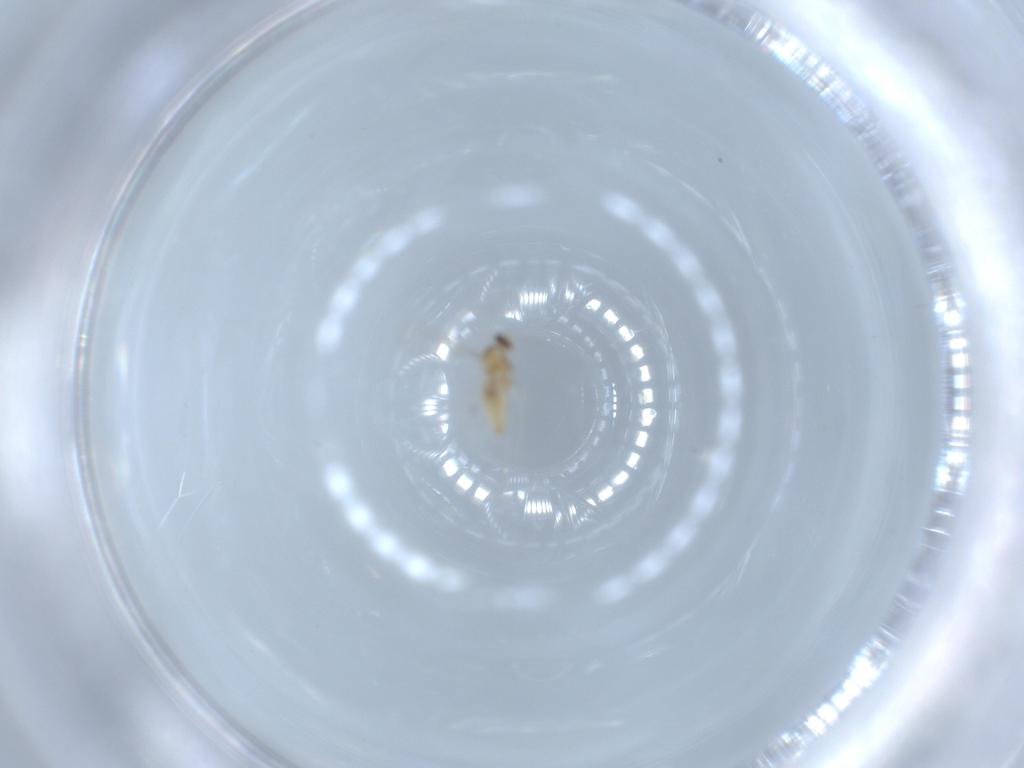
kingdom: Animalia
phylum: Arthropoda
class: Insecta
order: Diptera
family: Cecidomyiidae
